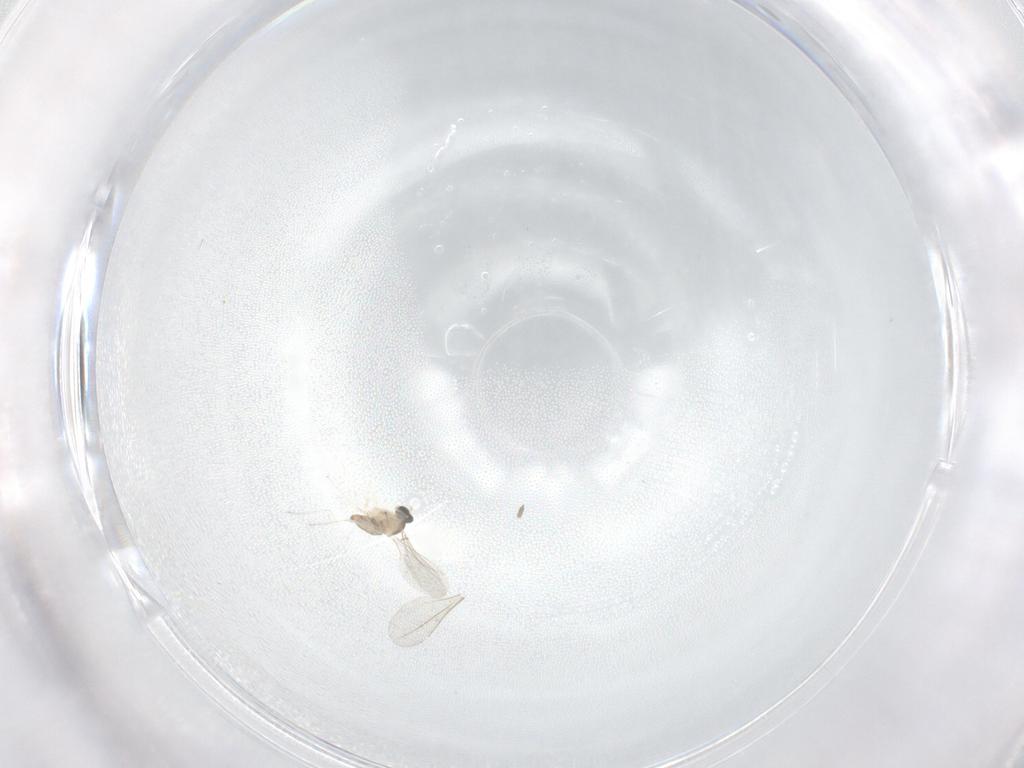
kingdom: Animalia
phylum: Arthropoda
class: Insecta
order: Diptera
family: Cecidomyiidae
